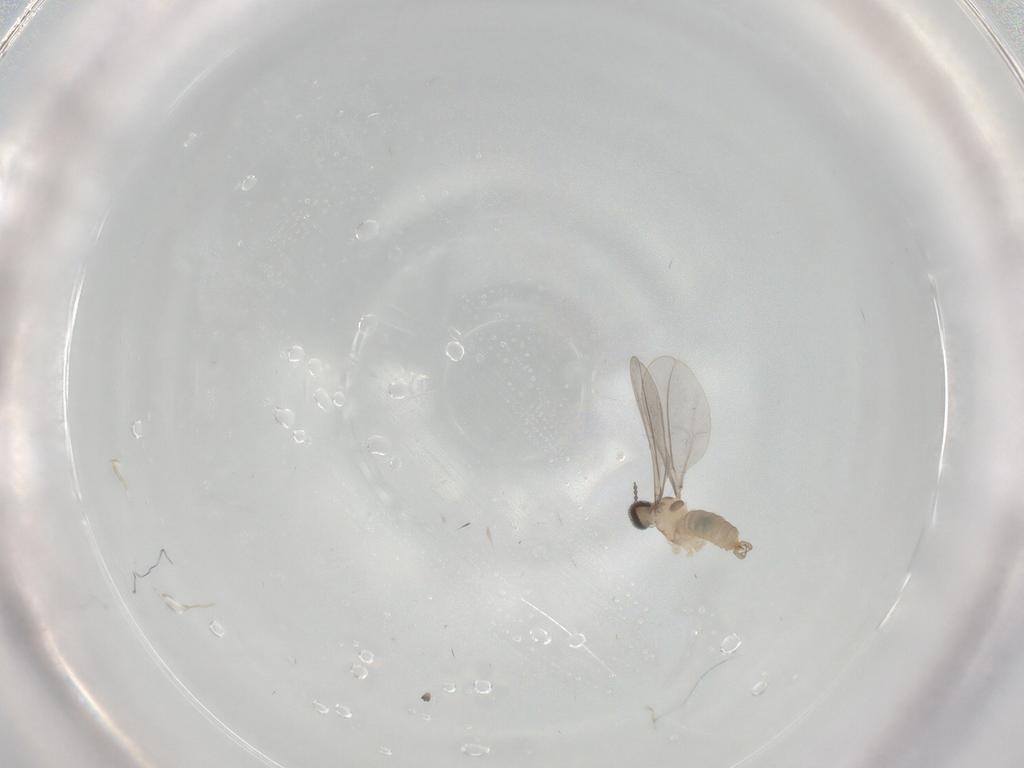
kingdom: Animalia
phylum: Arthropoda
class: Insecta
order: Diptera
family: Cecidomyiidae
